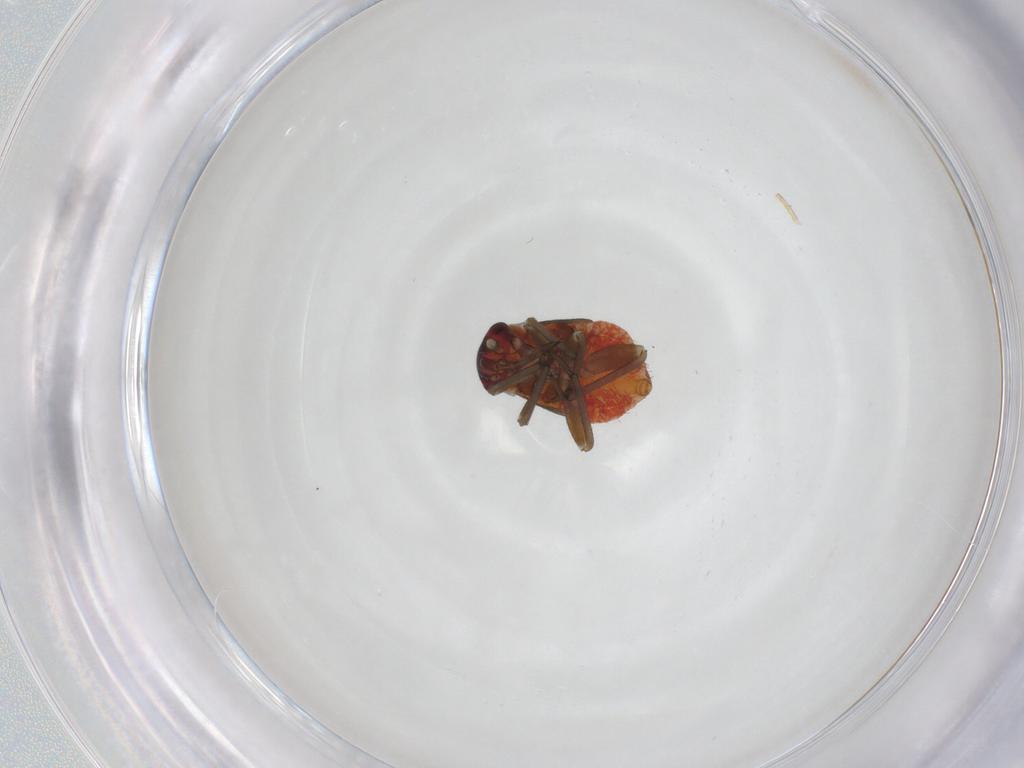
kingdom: Animalia
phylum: Arthropoda
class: Insecta
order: Hemiptera
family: Miridae
